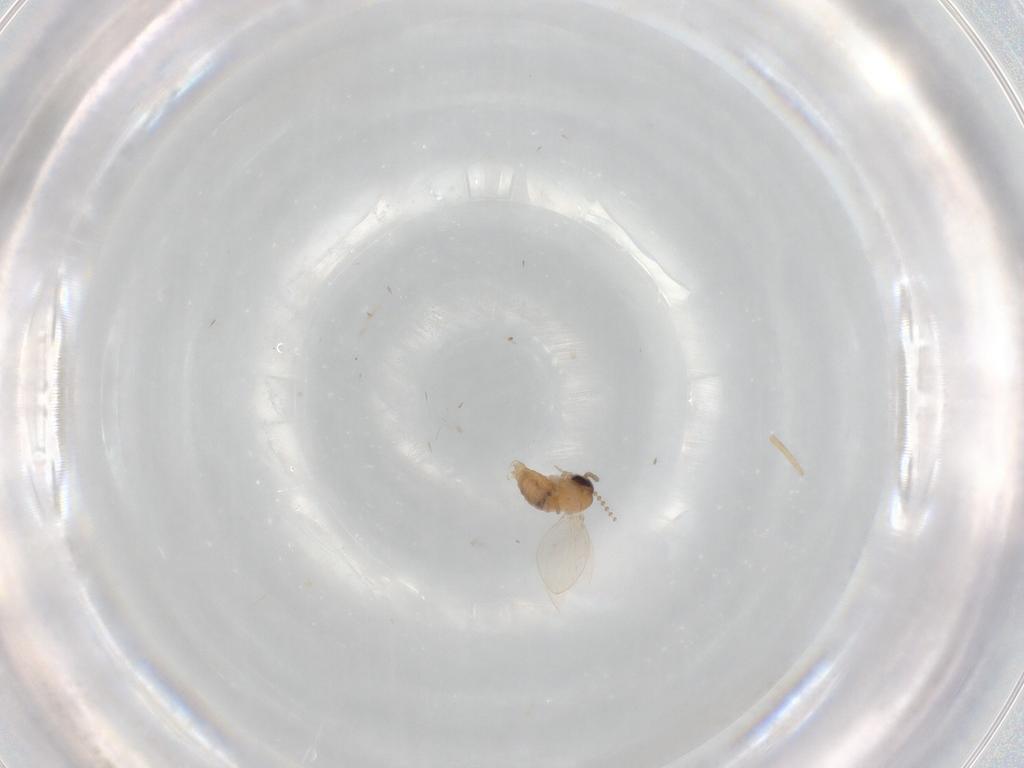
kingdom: Animalia
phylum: Arthropoda
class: Insecta
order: Diptera
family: Psychodidae
